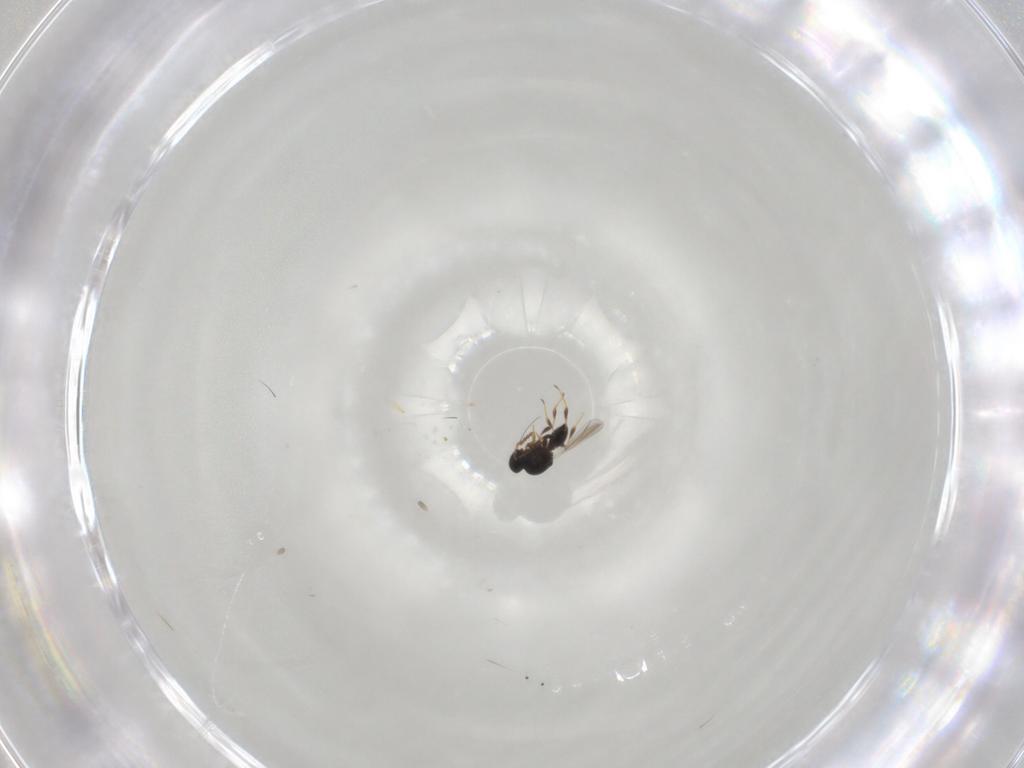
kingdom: Animalia
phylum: Arthropoda
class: Insecta
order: Hymenoptera
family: Platygastridae
